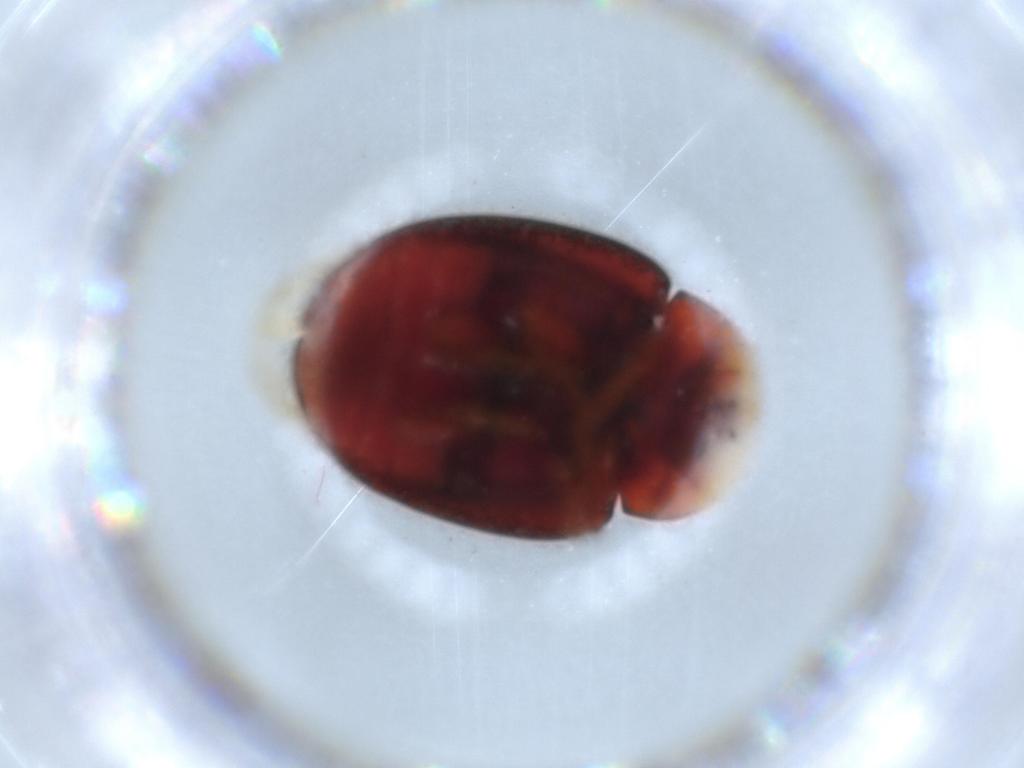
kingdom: Animalia
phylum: Arthropoda
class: Insecta
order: Coleoptera
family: Coccinellidae
